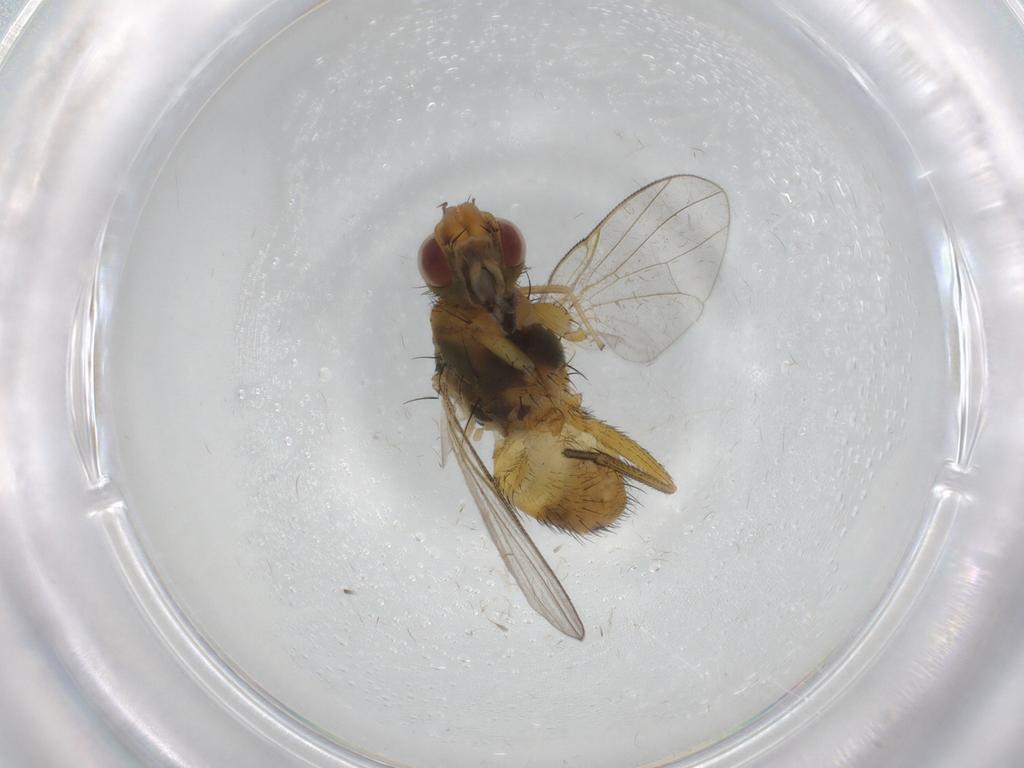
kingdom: Animalia
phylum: Arthropoda
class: Insecta
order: Diptera
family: Muscidae
